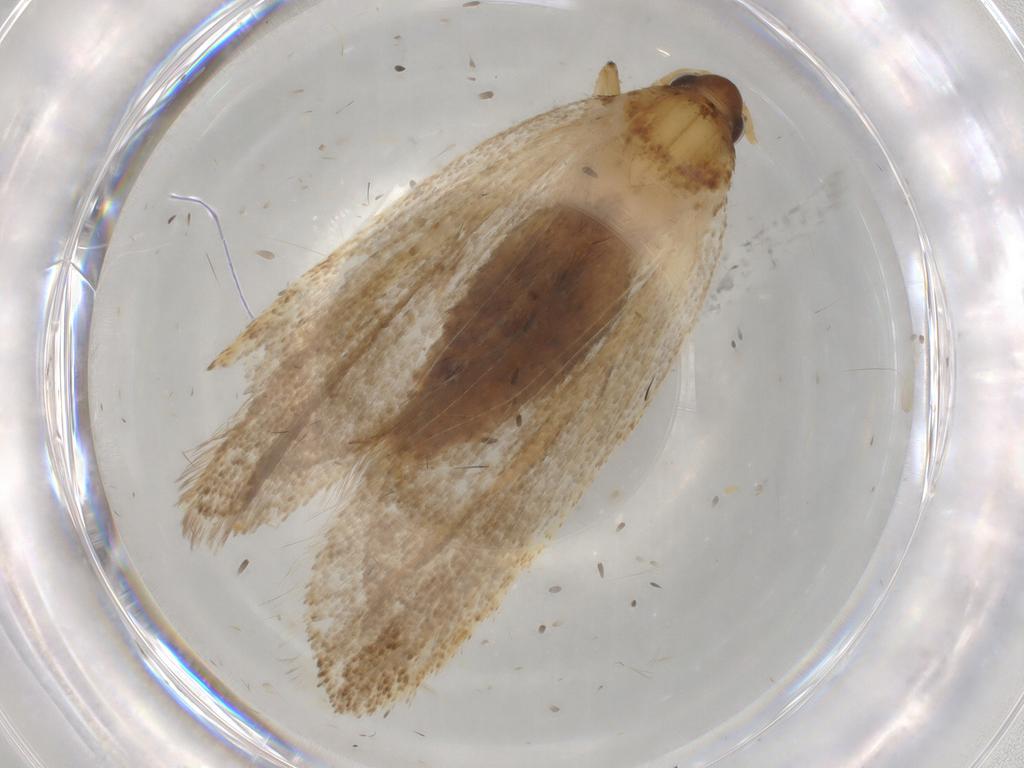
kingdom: Animalia
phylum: Arthropoda
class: Insecta
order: Lepidoptera
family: Lecithoceridae
